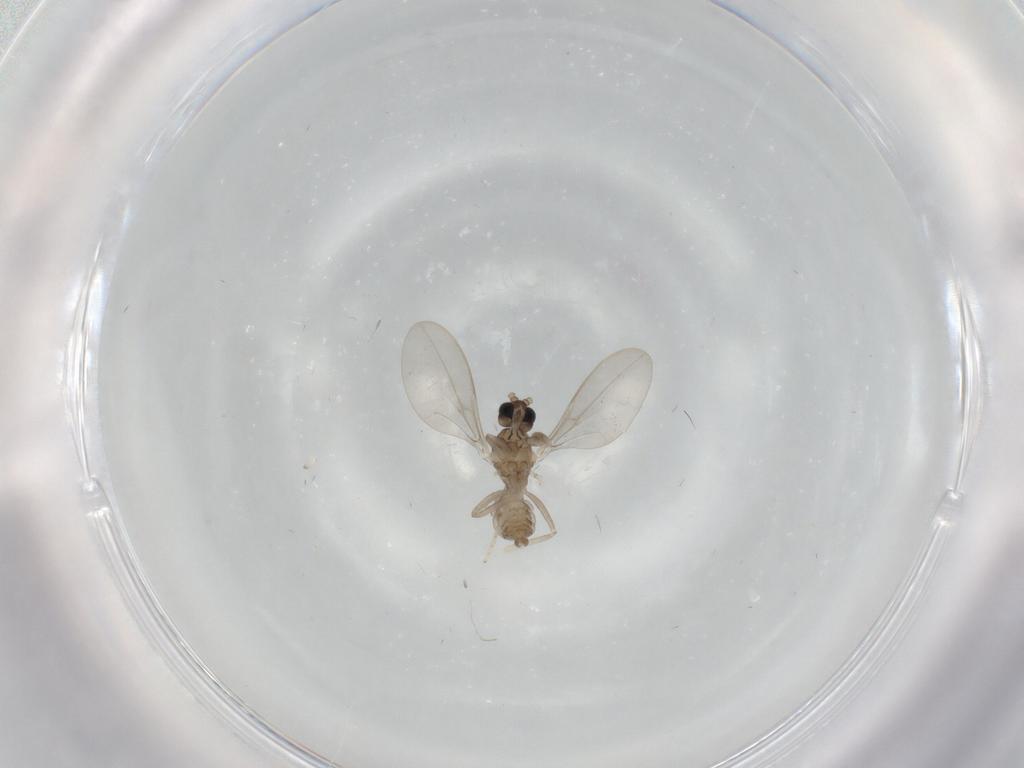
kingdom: Animalia
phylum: Arthropoda
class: Insecta
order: Diptera
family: Cecidomyiidae
